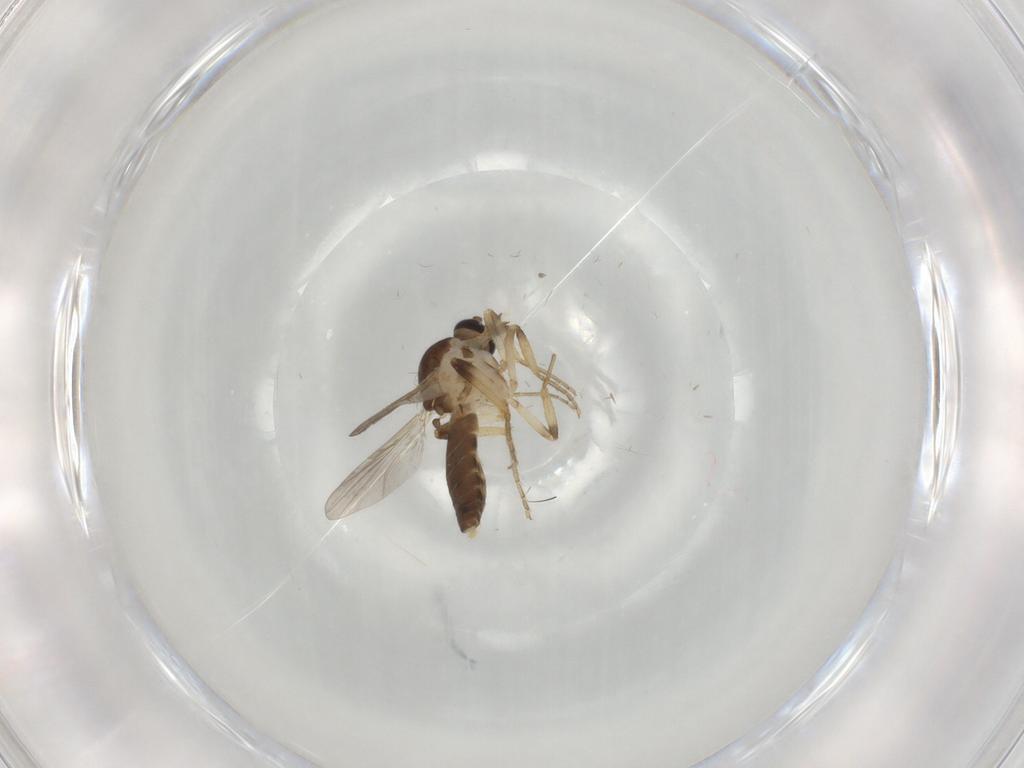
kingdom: Animalia
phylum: Arthropoda
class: Insecta
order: Diptera
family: Ceratopogonidae
